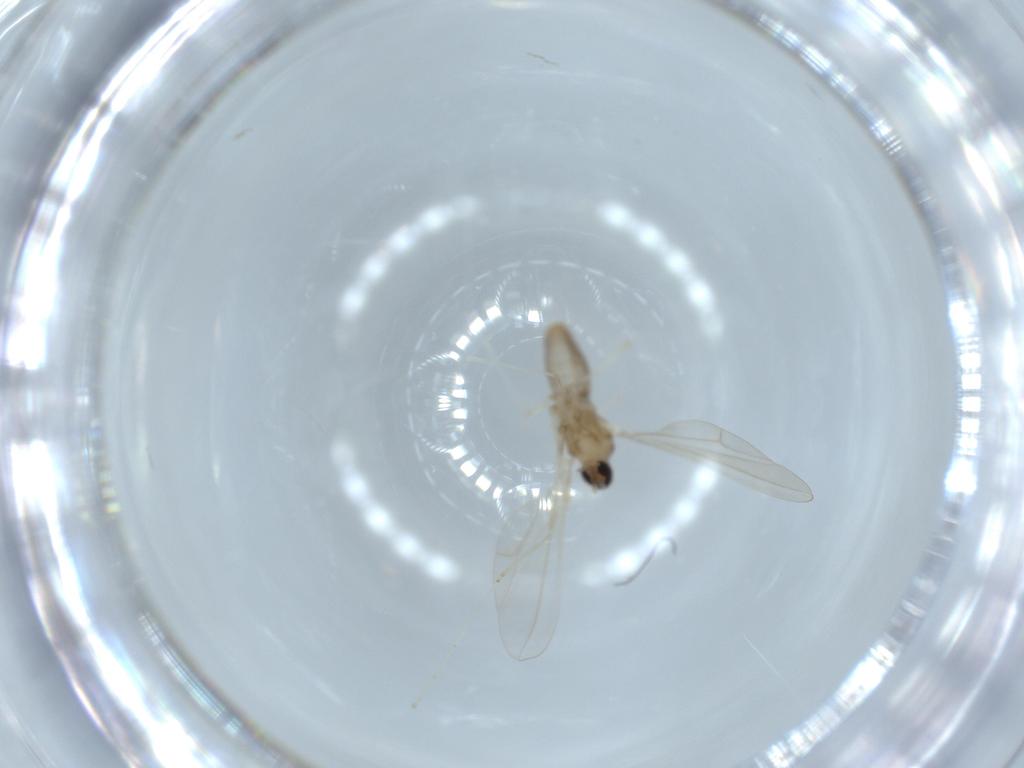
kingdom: Animalia
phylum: Arthropoda
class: Insecta
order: Diptera
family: Cecidomyiidae
